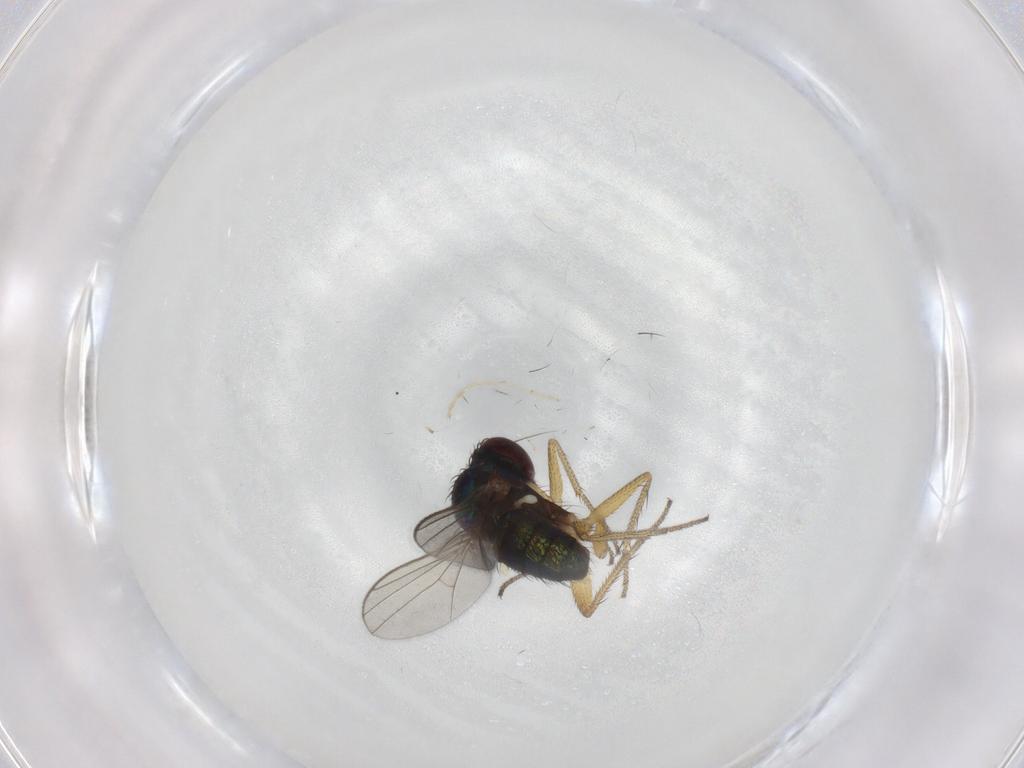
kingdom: Animalia
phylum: Arthropoda
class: Insecta
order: Diptera
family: Dolichopodidae
